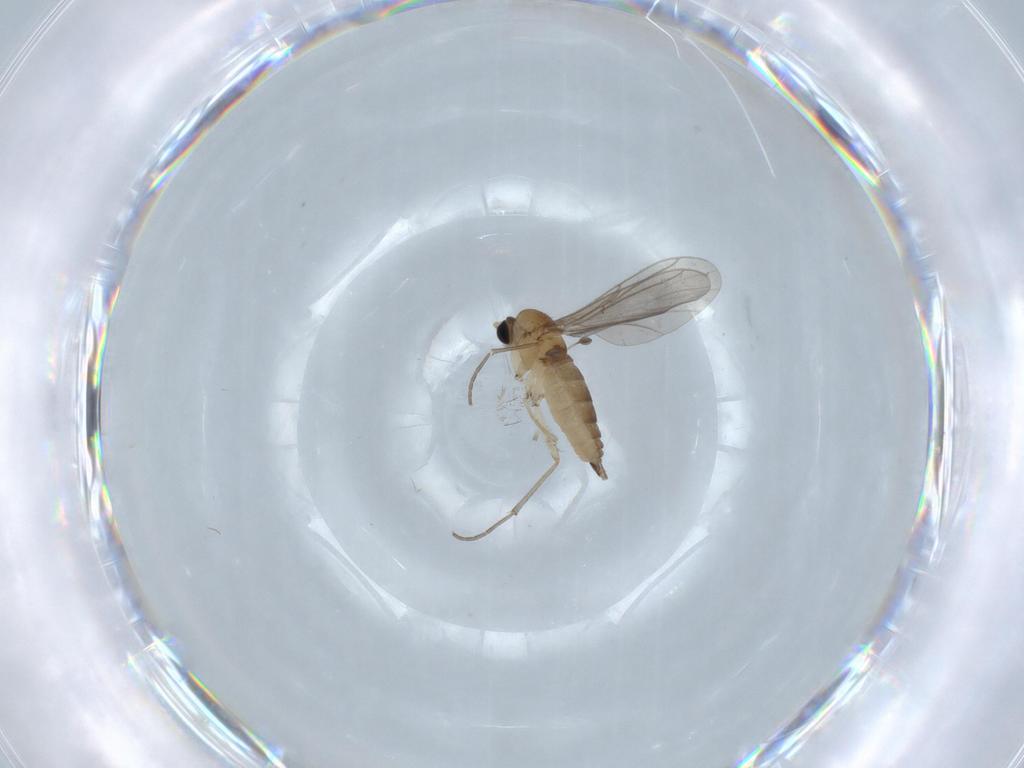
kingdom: Animalia
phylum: Arthropoda
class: Insecta
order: Diptera
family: Sciaridae
